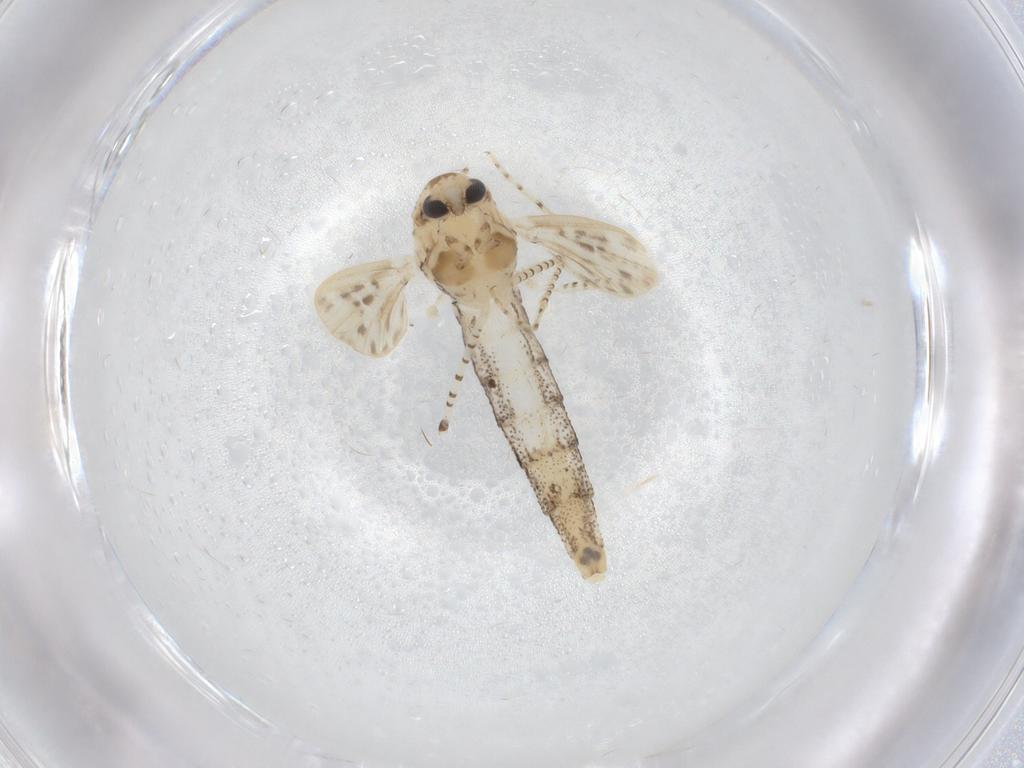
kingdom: Animalia
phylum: Arthropoda
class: Insecta
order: Diptera
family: Chaoboridae
